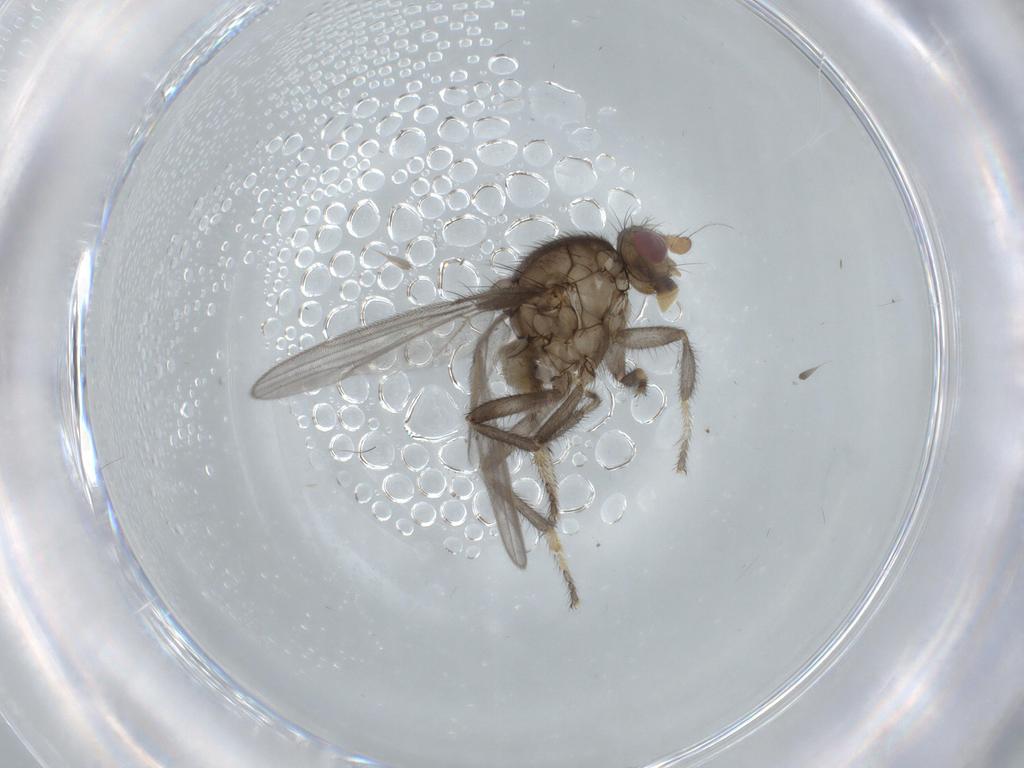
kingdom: Animalia
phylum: Arthropoda
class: Insecta
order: Diptera
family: Sphaeroceridae
